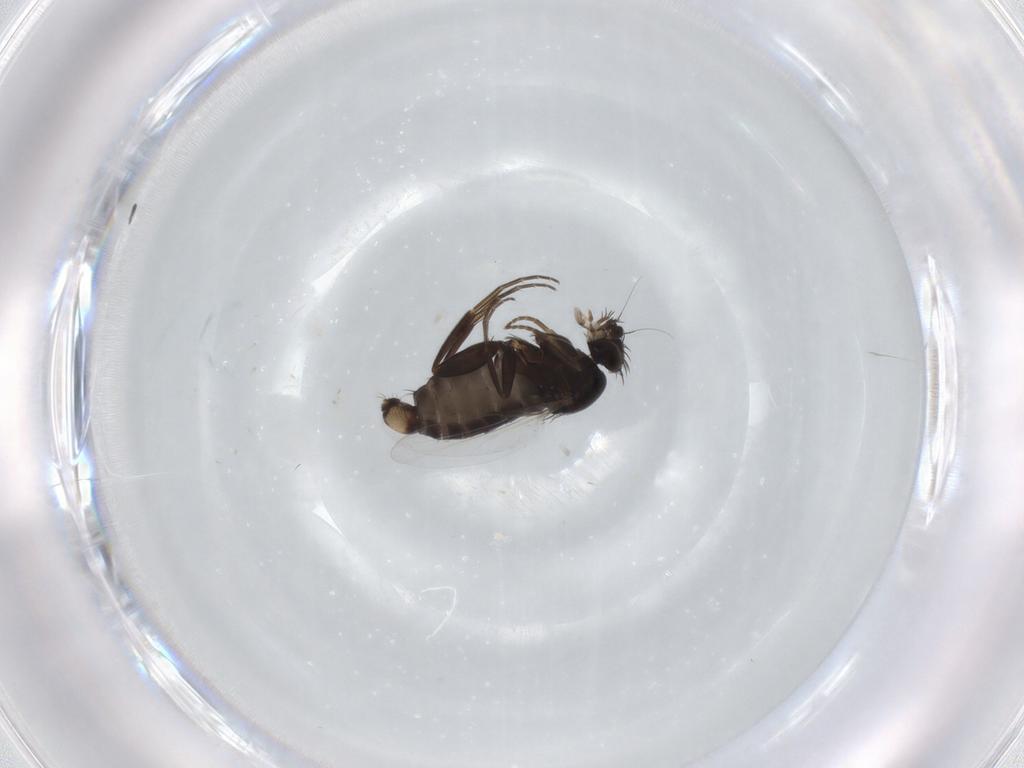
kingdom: Animalia
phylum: Arthropoda
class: Insecta
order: Diptera
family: Phoridae
